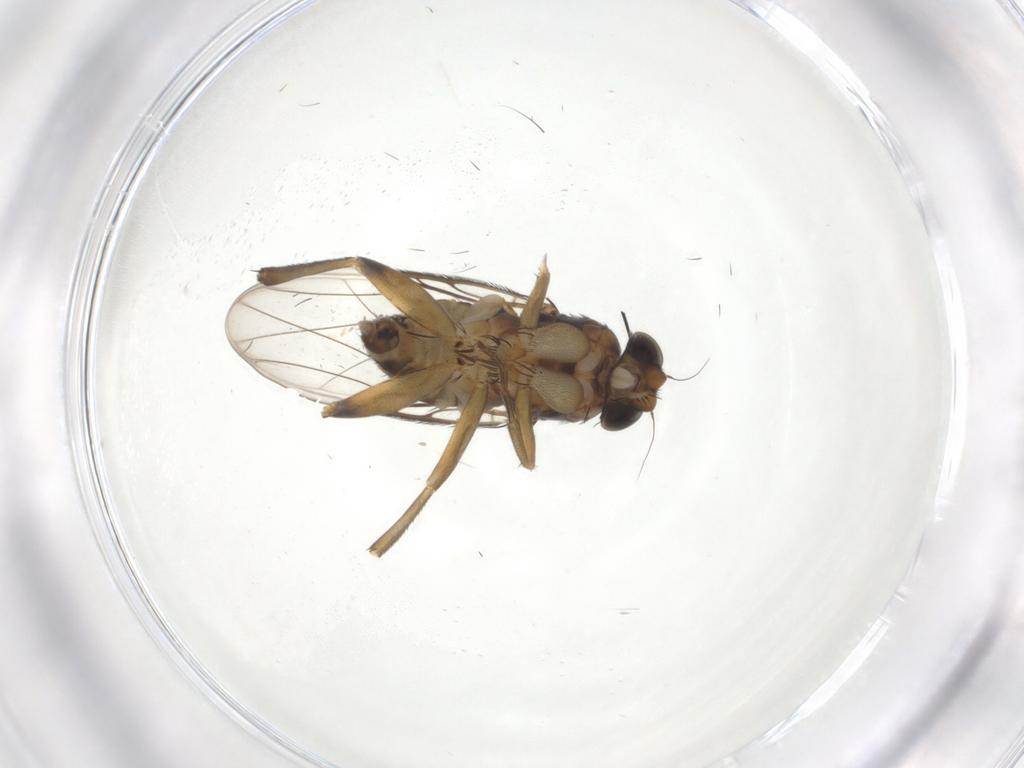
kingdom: Animalia
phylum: Arthropoda
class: Insecta
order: Diptera
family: Phoridae
